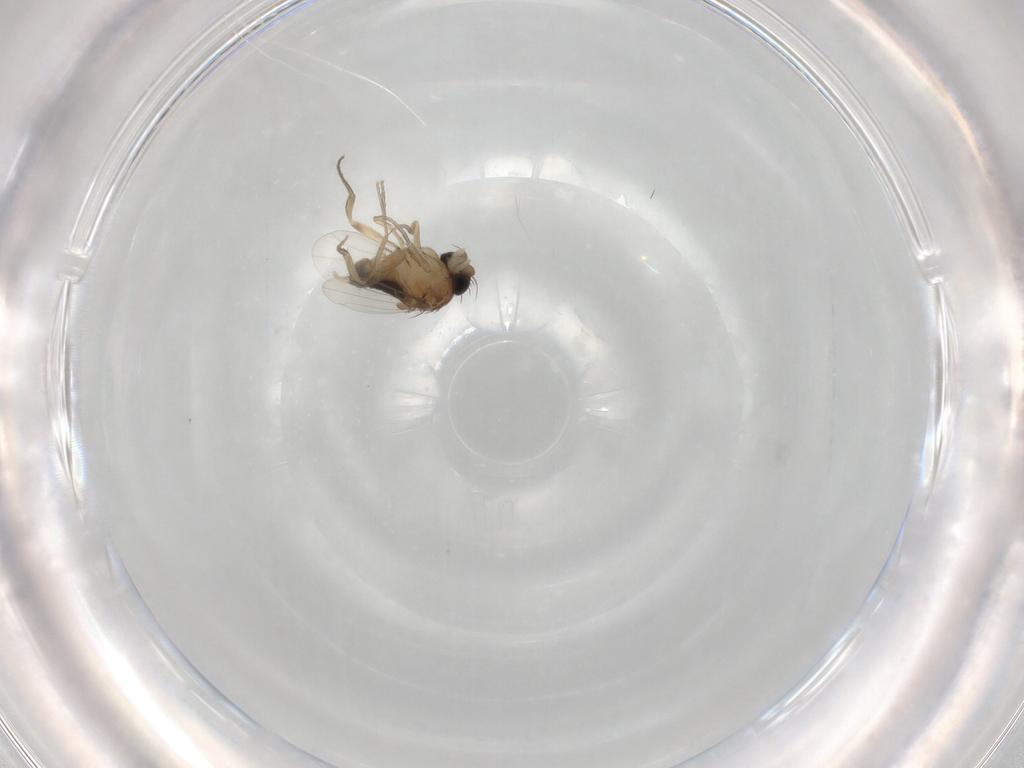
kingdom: Animalia
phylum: Arthropoda
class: Insecta
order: Diptera
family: Phoridae
